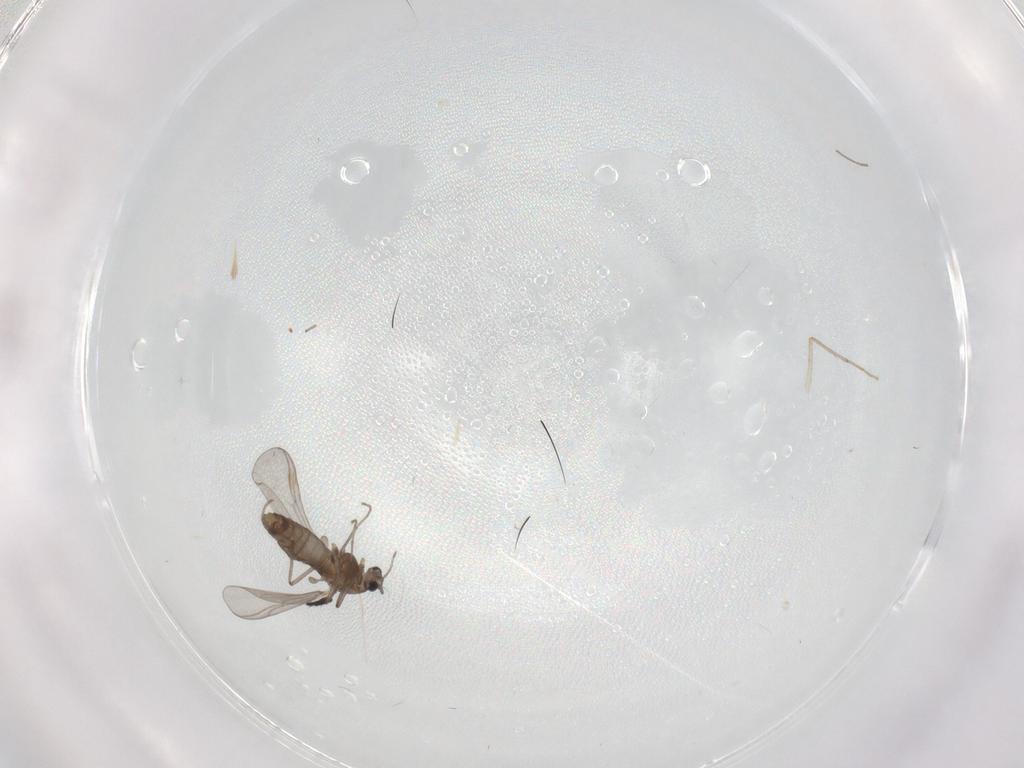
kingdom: Animalia
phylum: Arthropoda
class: Insecta
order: Diptera
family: Chironomidae
